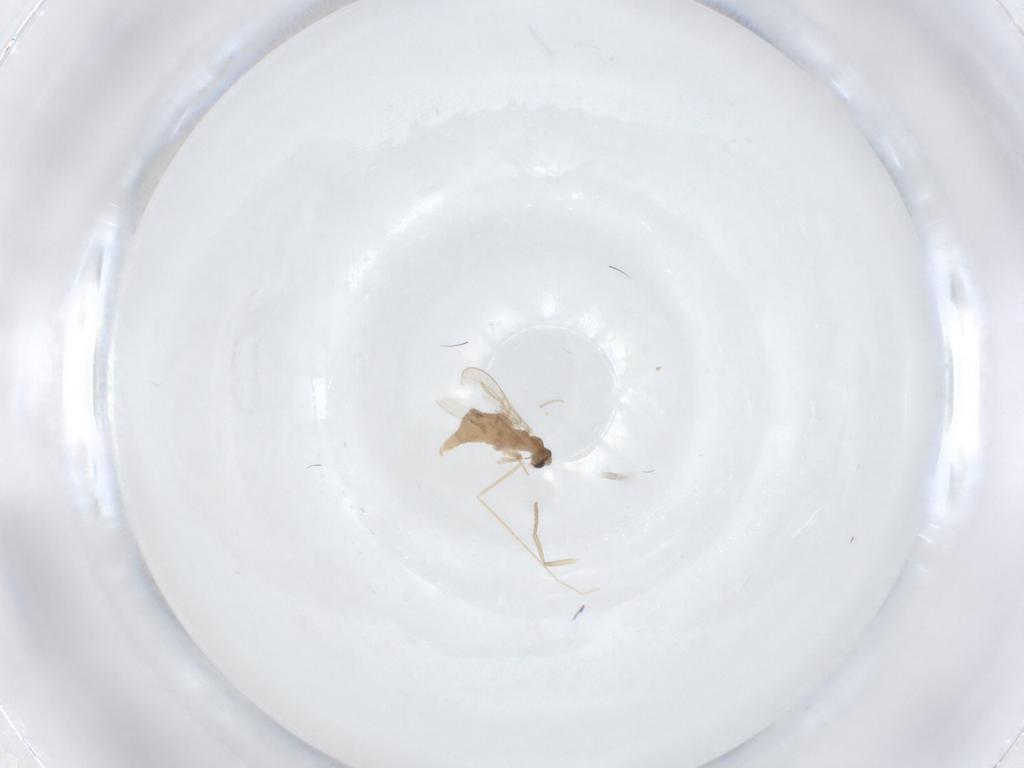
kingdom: Animalia
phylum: Arthropoda
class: Insecta
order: Diptera
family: Cecidomyiidae
